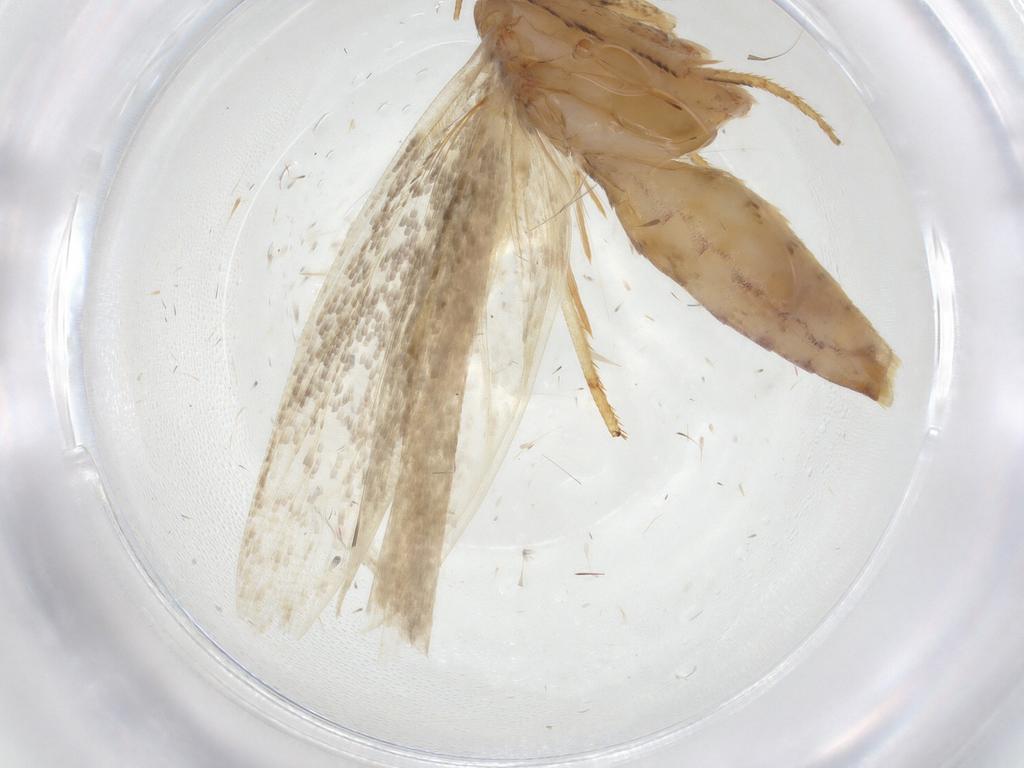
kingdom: Animalia
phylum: Arthropoda
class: Insecta
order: Lepidoptera
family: Gelechiidae
